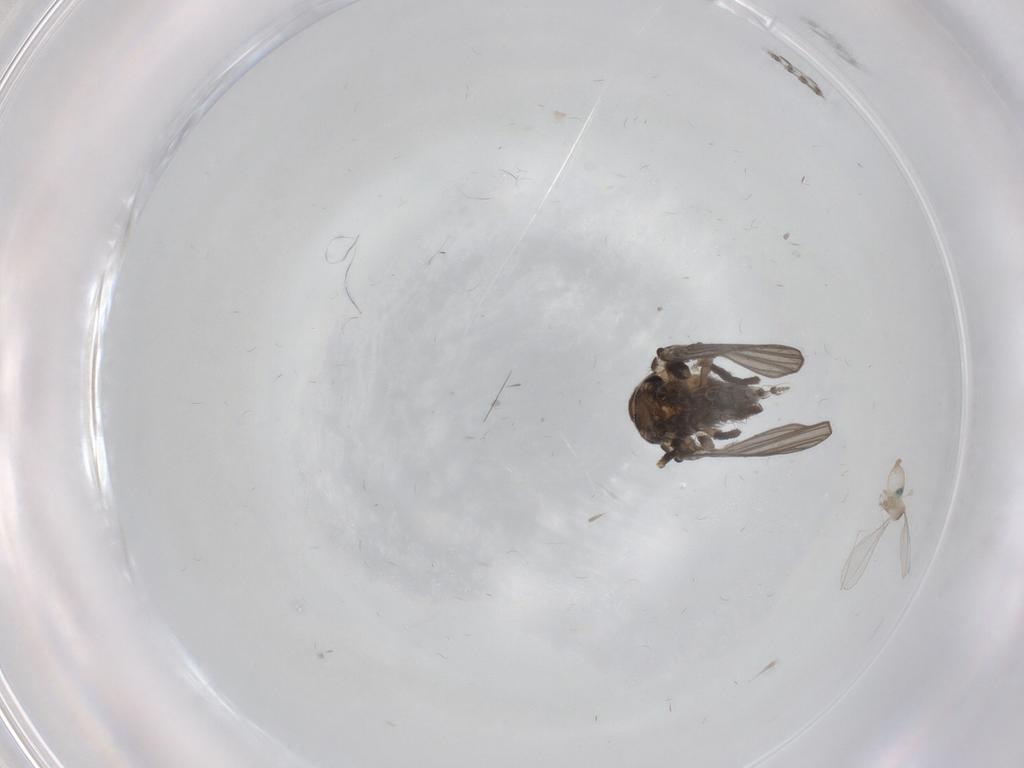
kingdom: Animalia
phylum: Arthropoda
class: Insecta
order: Diptera
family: Psychodidae
